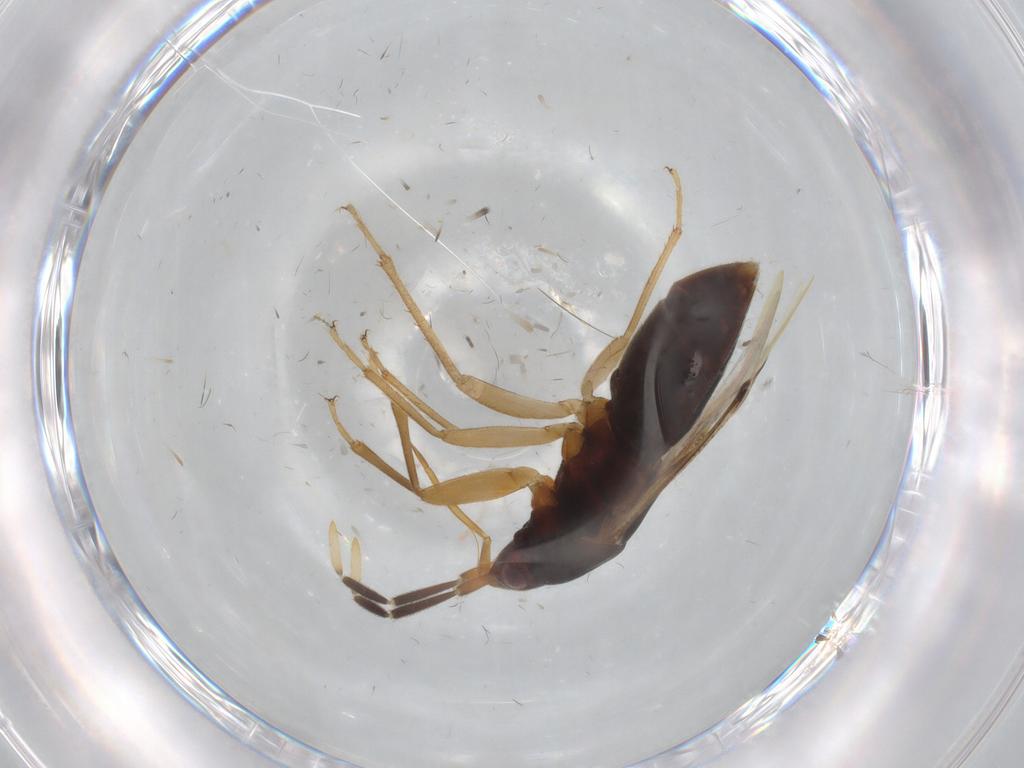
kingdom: Animalia
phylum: Arthropoda
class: Insecta
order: Hemiptera
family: Rhyparochromidae
